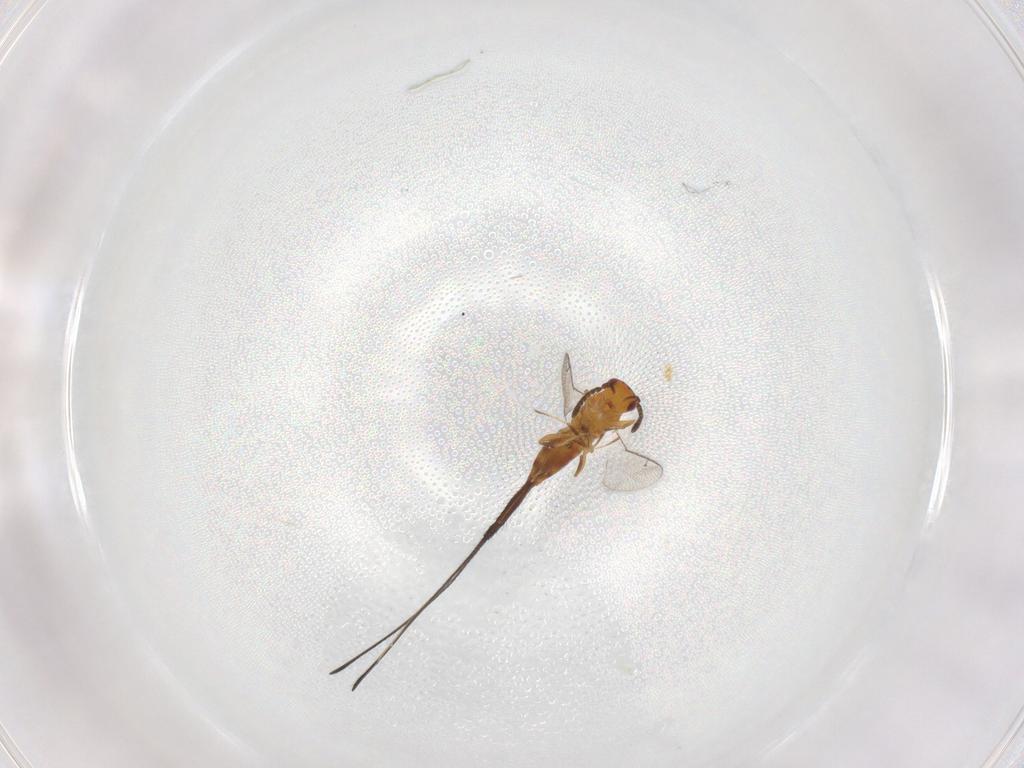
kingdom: Animalia
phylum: Arthropoda
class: Insecta
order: Hymenoptera
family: Pteromalidae
